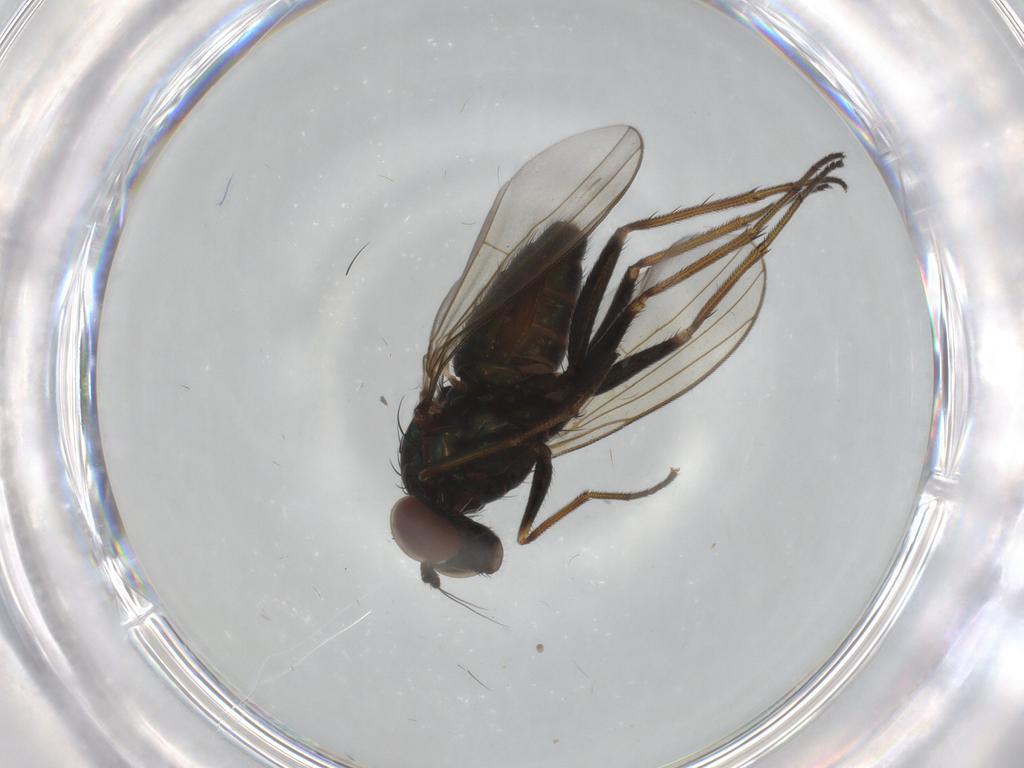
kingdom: Animalia
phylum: Arthropoda
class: Insecta
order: Diptera
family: Dolichopodidae
